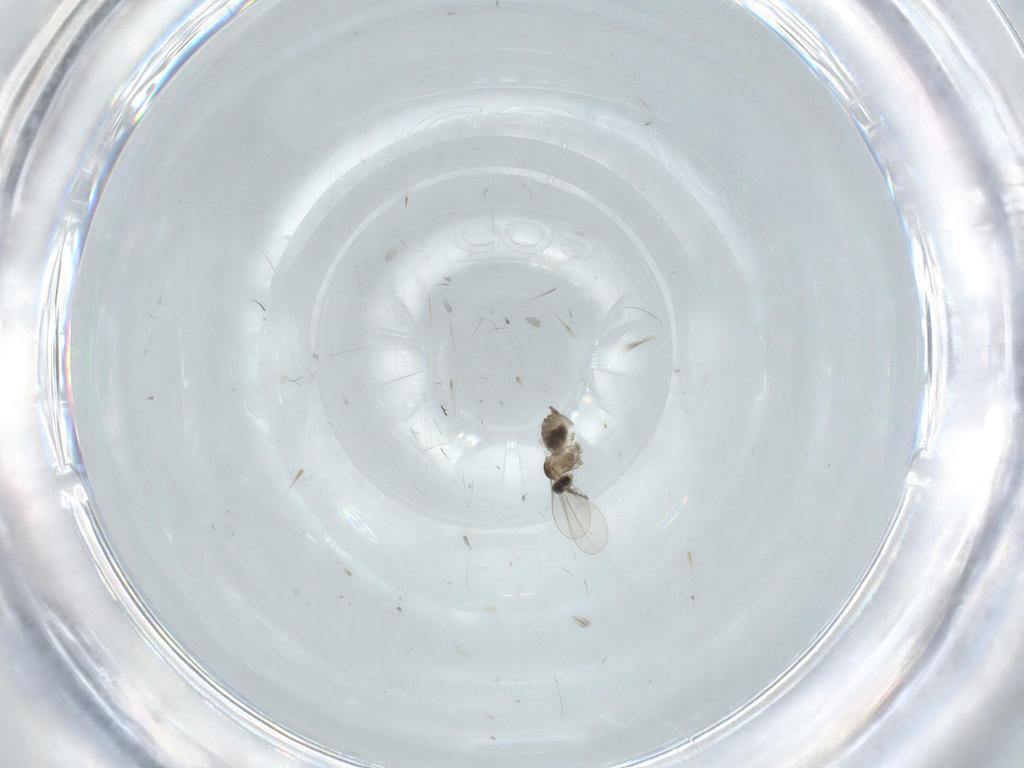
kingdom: Animalia
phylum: Arthropoda
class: Insecta
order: Diptera
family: Cecidomyiidae
